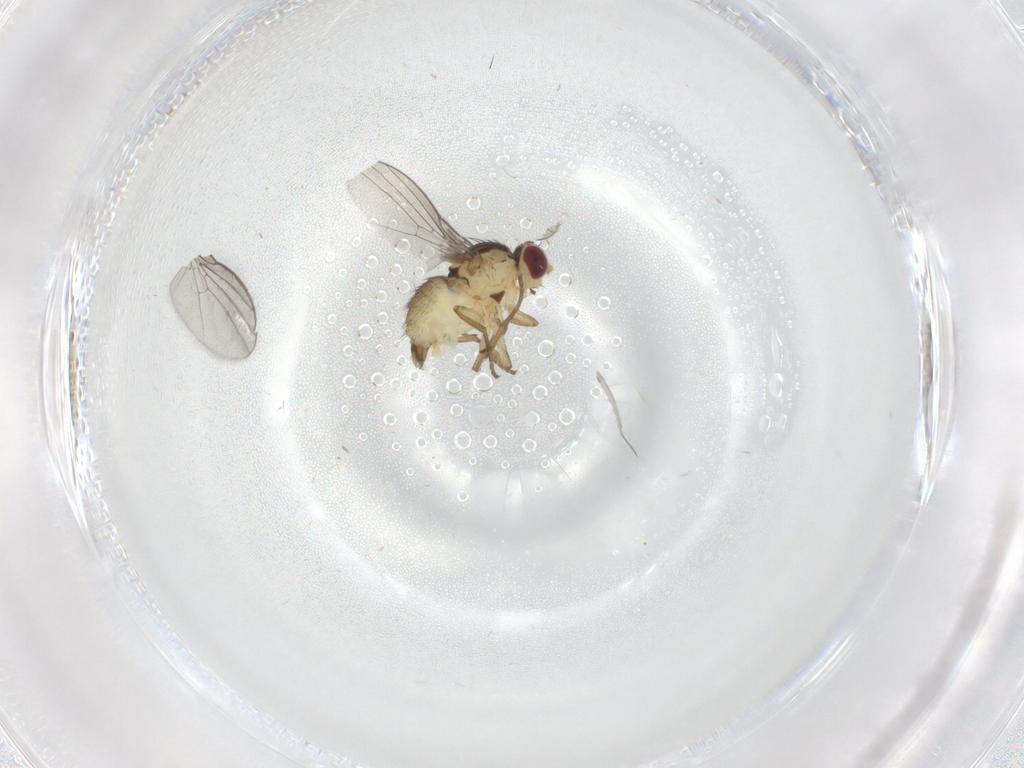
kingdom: Animalia
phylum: Arthropoda
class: Insecta
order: Diptera
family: Agromyzidae
